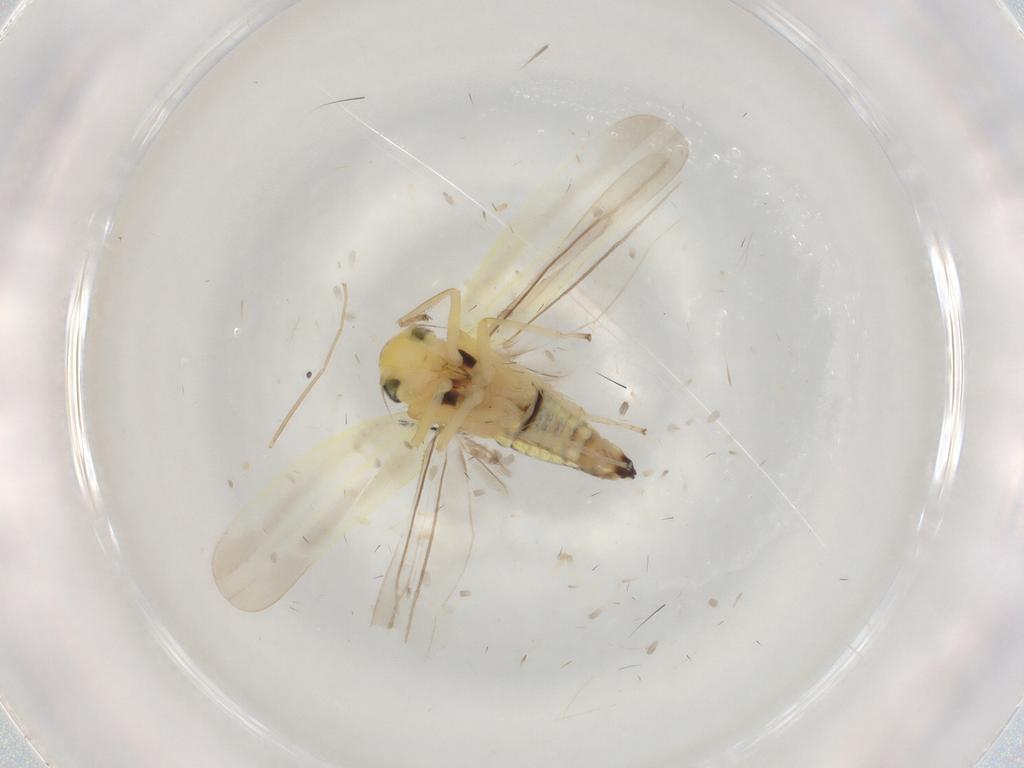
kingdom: Animalia
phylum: Arthropoda
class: Insecta
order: Hemiptera
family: Cicadellidae
